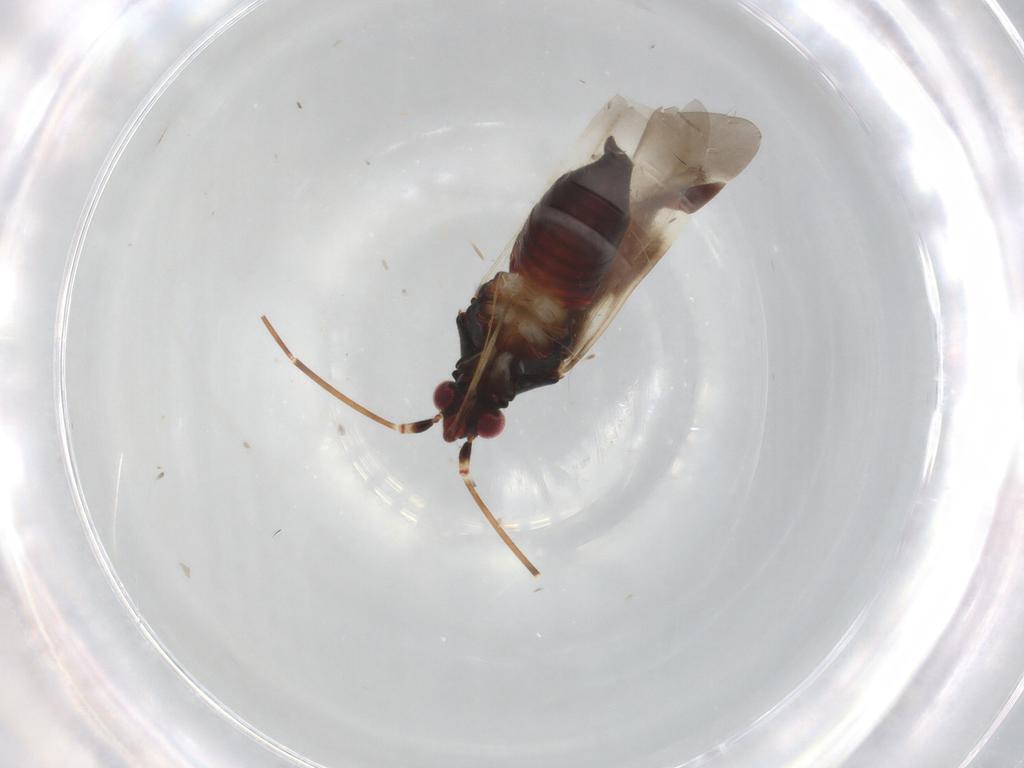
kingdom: Animalia
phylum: Arthropoda
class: Insecta
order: Hemiptera
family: Miridae
